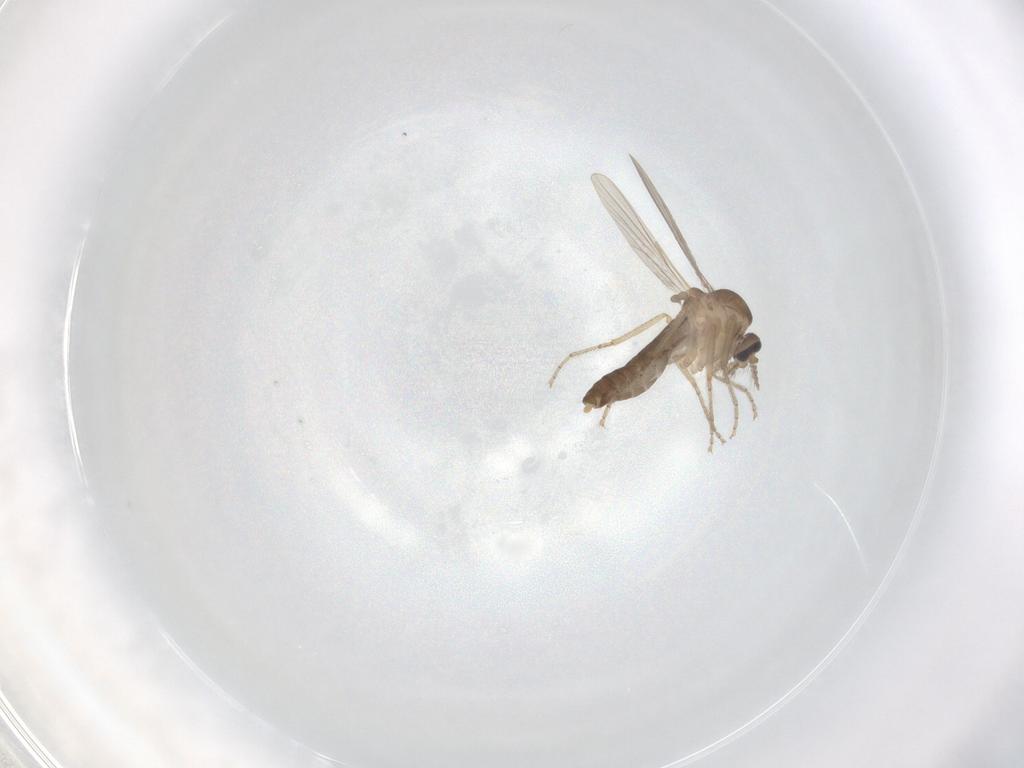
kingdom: Animalia
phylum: Arthropoda
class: Insecta
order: Diptera
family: Ceratopogonidae
